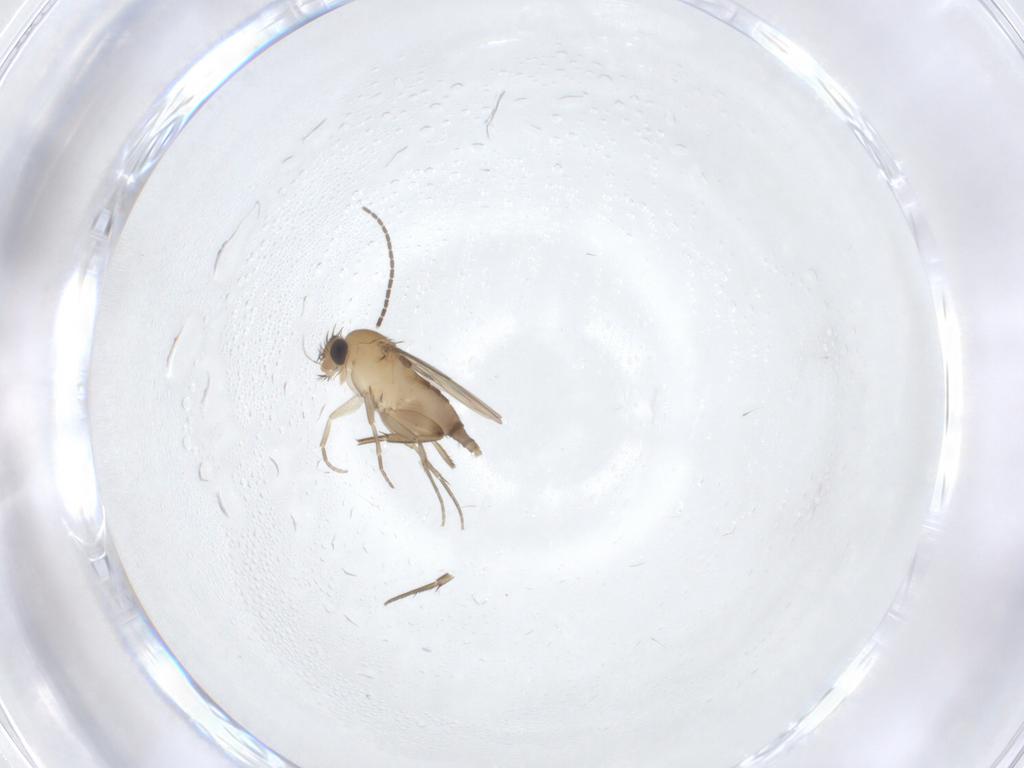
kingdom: Animalia
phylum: Arthropoda
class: Insecta
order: Diptera
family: Phoridae
